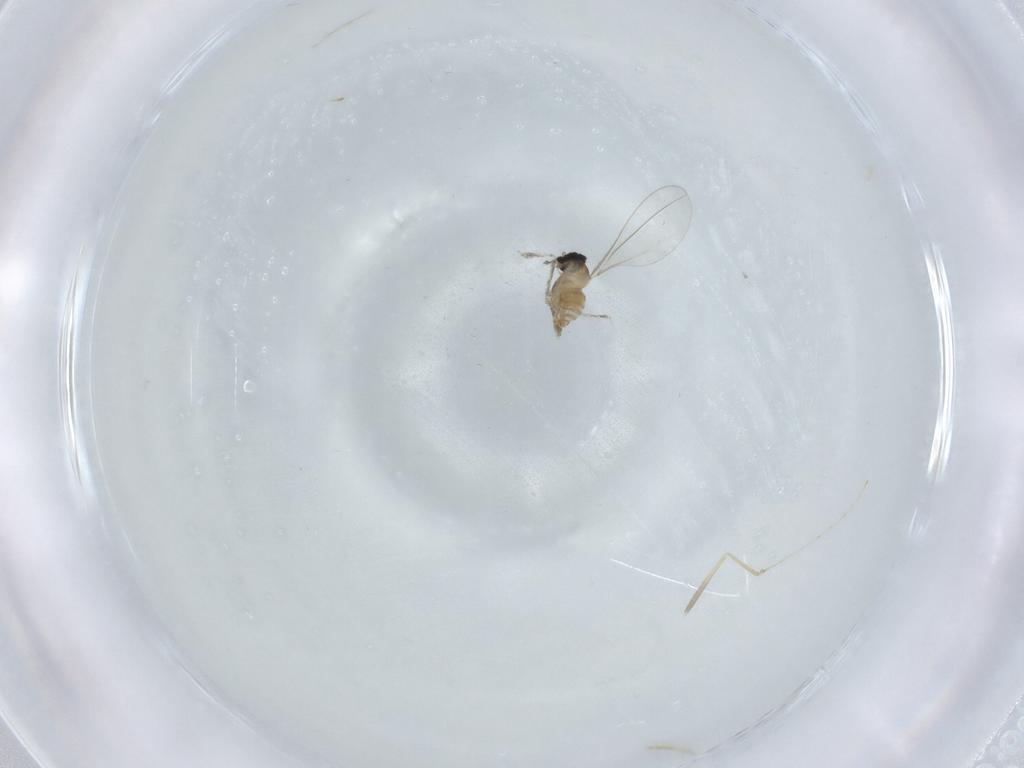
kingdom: Animalia
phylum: Arthropoda
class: Insecta
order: Diptera
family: Cecidomyiidae
